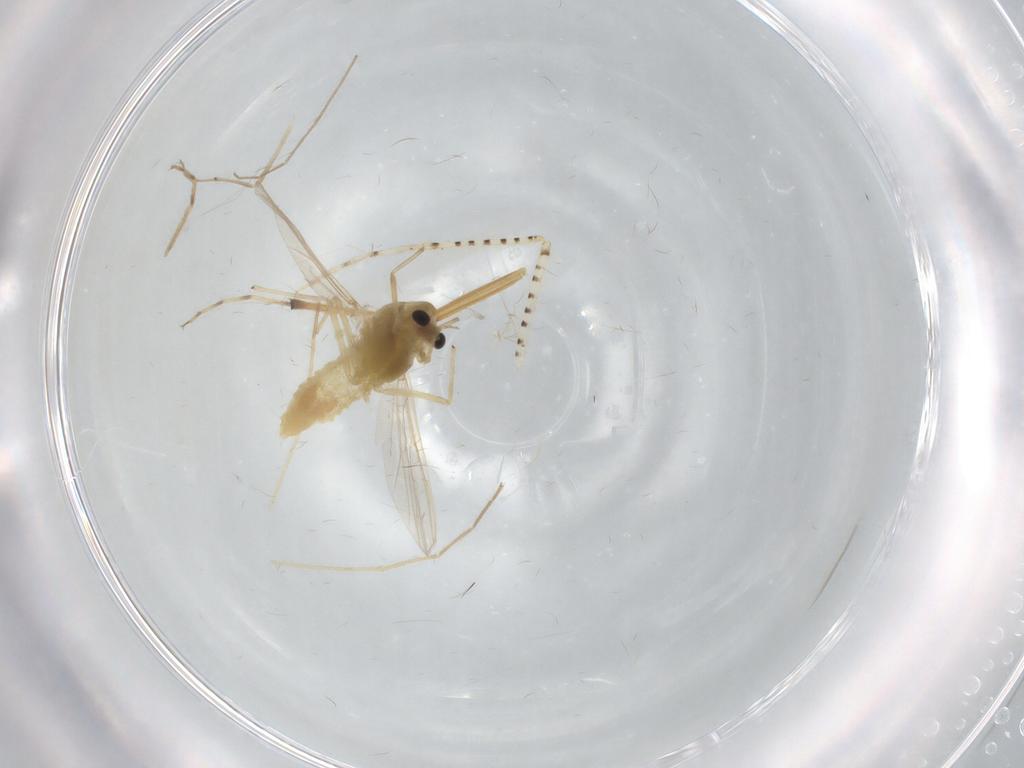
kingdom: Animalia
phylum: Arthropoda
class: Insecta
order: Diptera
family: Chironomidae
